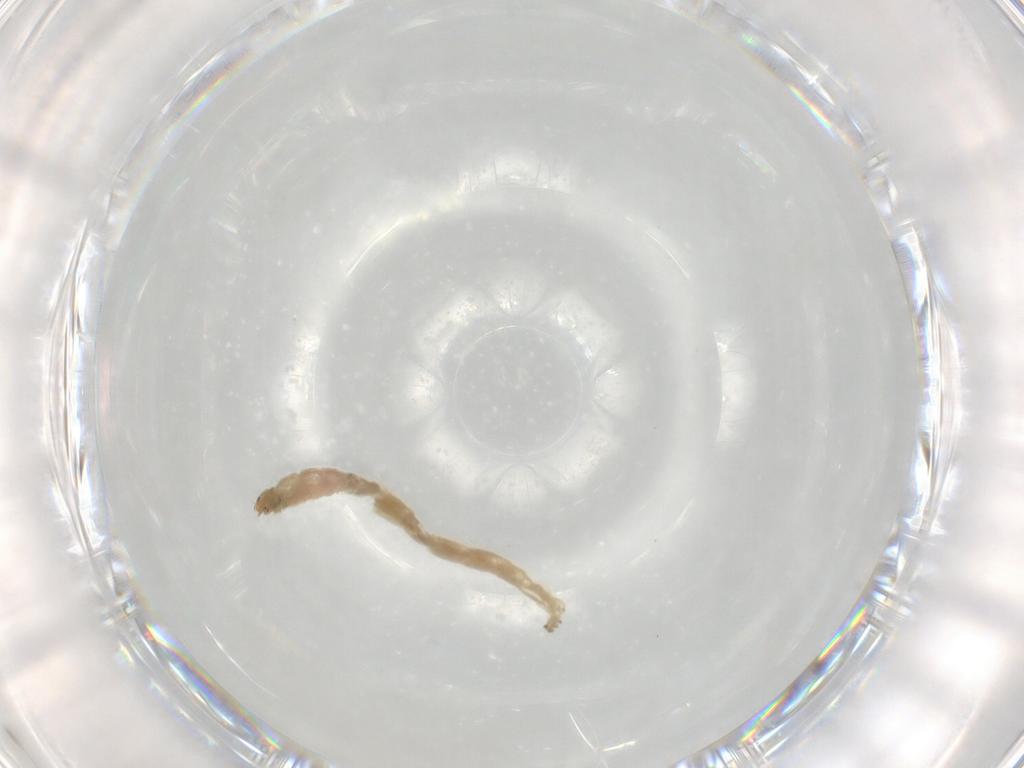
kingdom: Animalia
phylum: Arthropoda
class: Insecta
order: Diptera
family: Chironomidae
